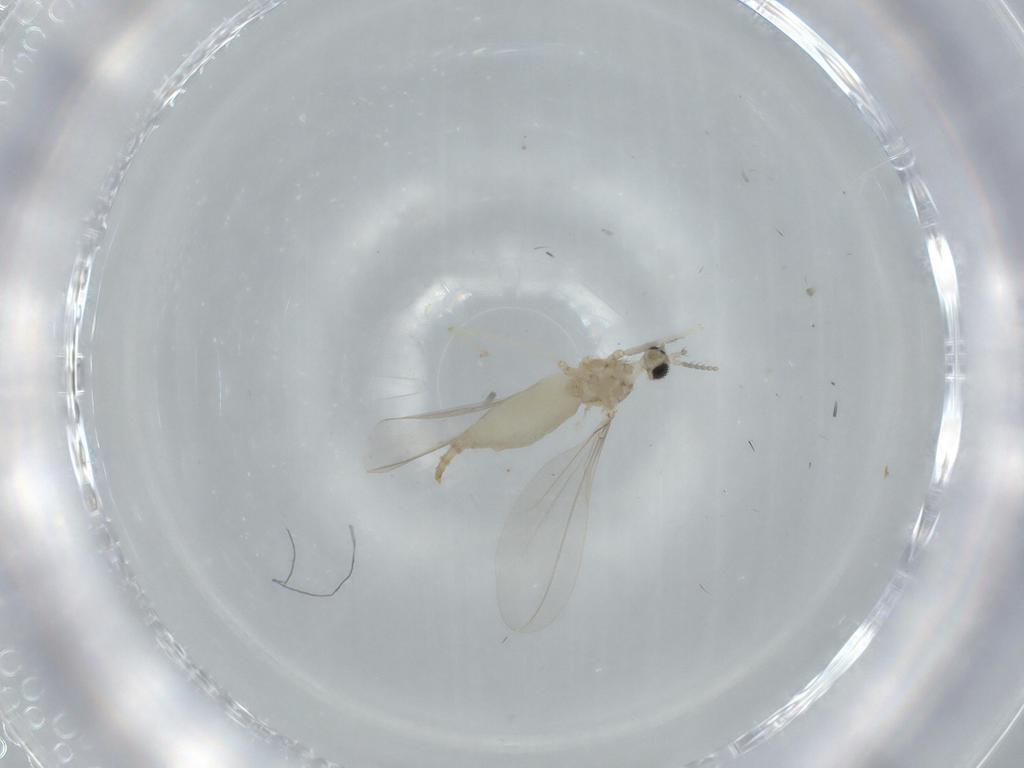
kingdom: Animalia
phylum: Arthropoda
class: Insecta
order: Diptera
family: Cecidomyiidae
